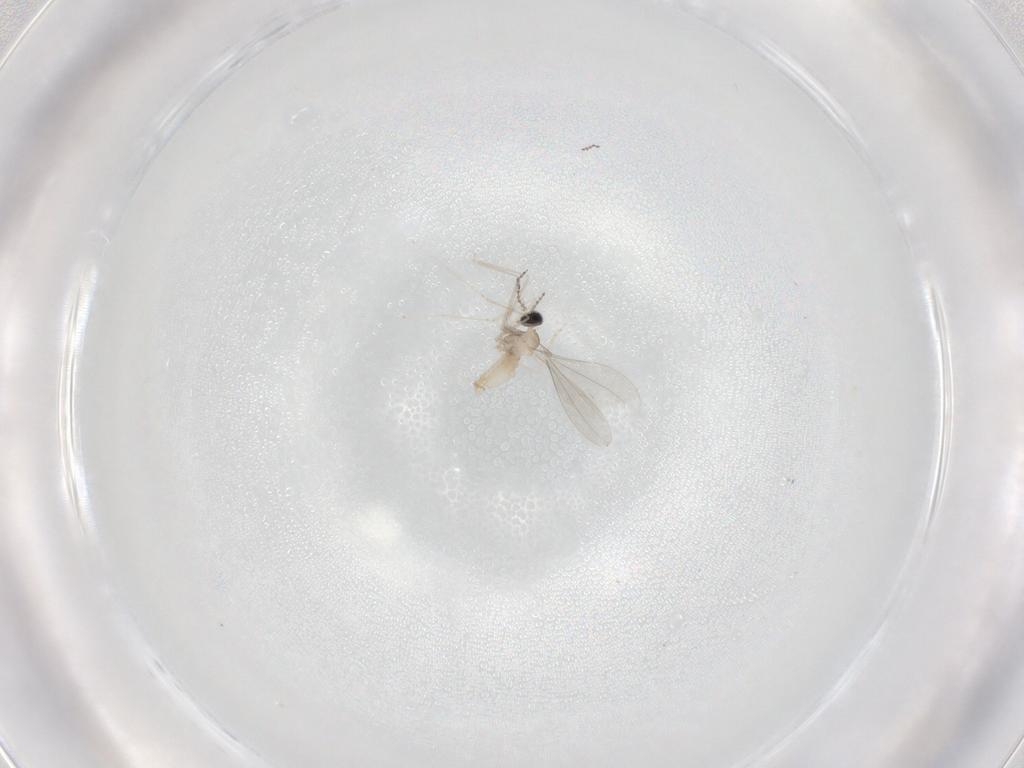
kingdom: Animalia
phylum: Arthropoda
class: Insecta
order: Diptera
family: Cecidomyiidae
